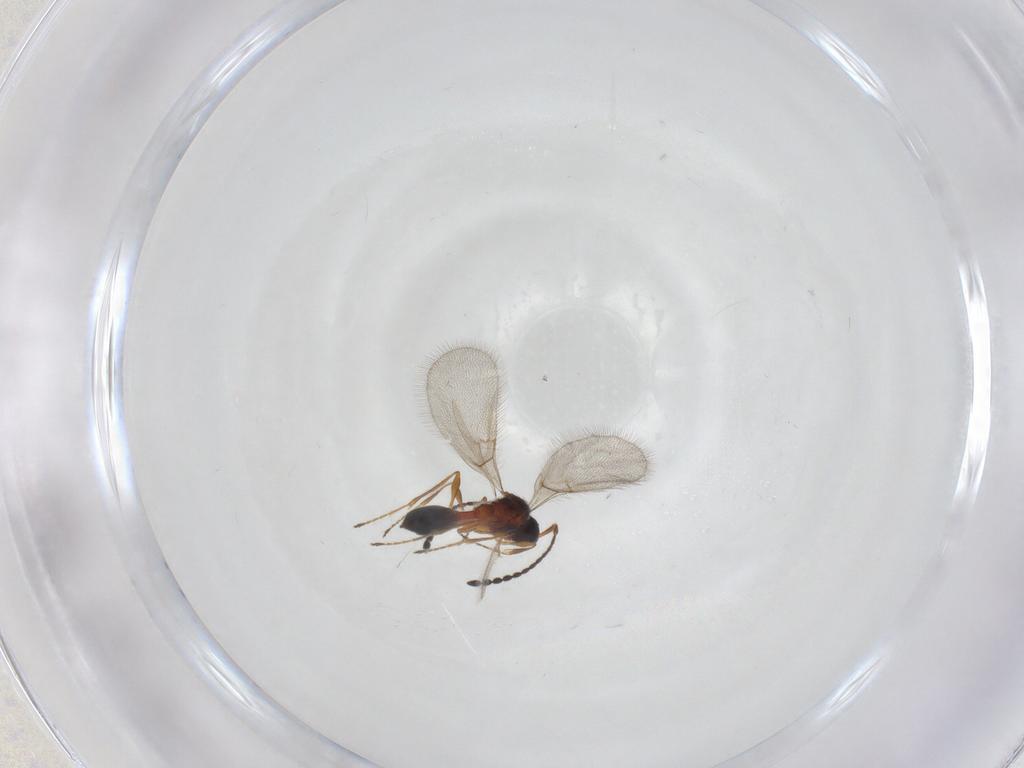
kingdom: Animalia
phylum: Arthropoda
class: Insecta
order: Hymenoptera
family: Diapriidae
